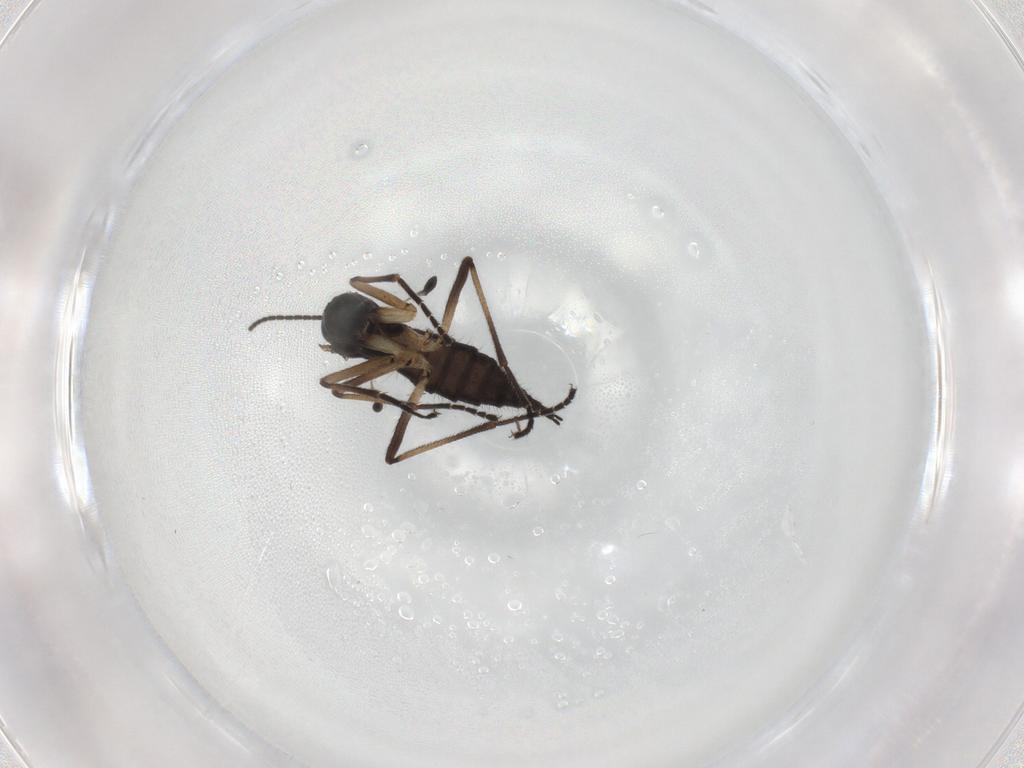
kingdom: Animalia
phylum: Arthropoda
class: Insecta
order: Diptera
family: Sciaridae
